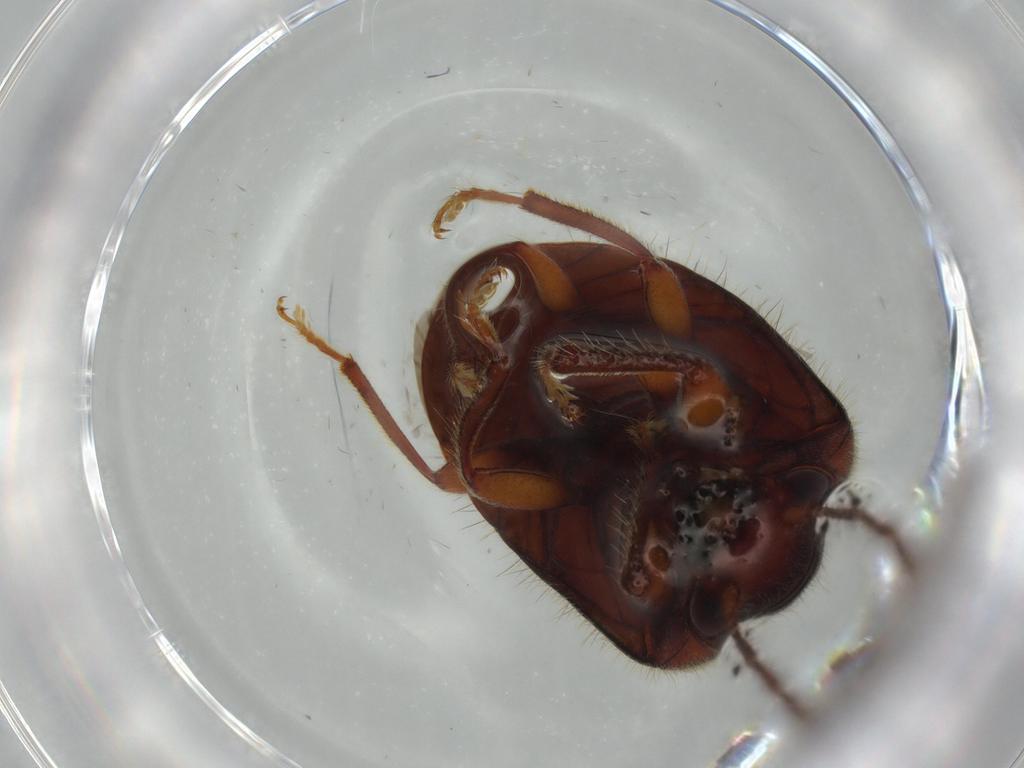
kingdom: Animalia
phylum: Arthropoda
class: Insecta
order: Coleoptera
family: Artematopodidae
